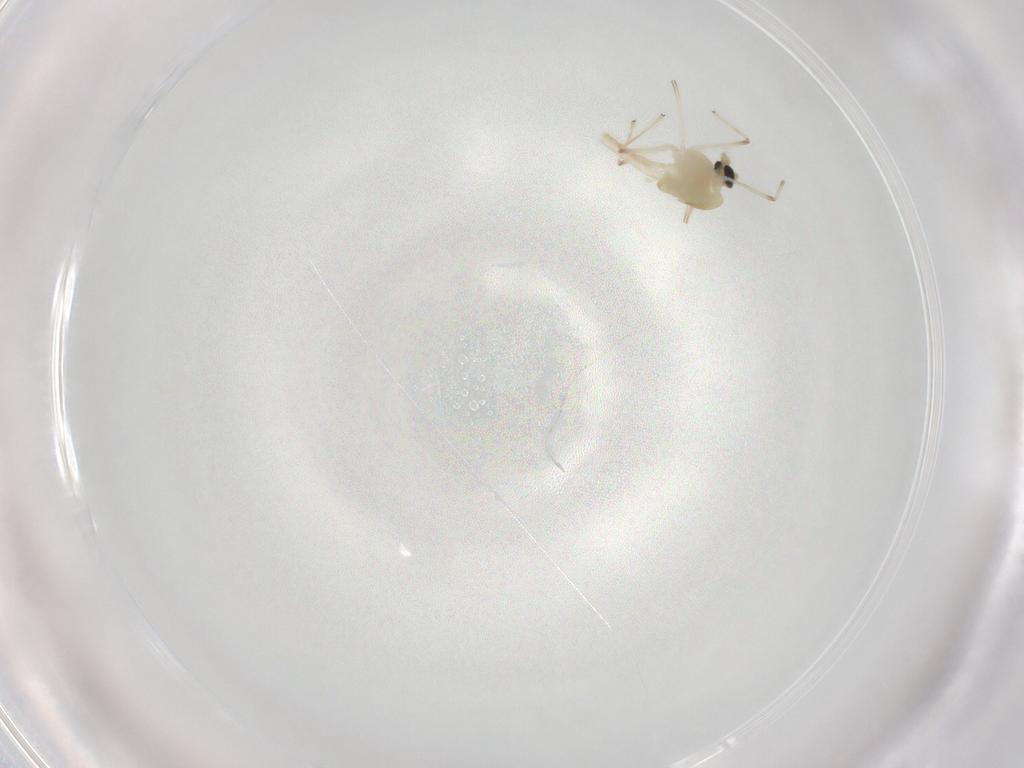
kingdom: Animalia
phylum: Arthropoda
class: Insecta
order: Diptera
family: Chironomidae
